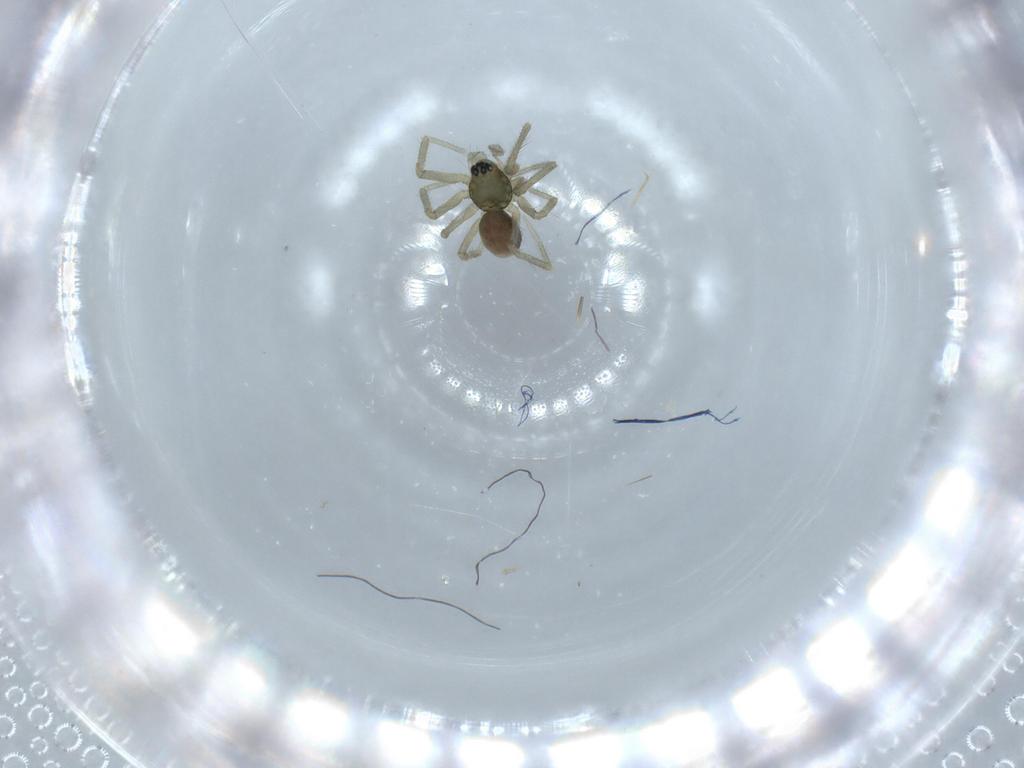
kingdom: Animalia
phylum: Arthropoda
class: Arachnida
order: Araneae
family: Linyphiidae
